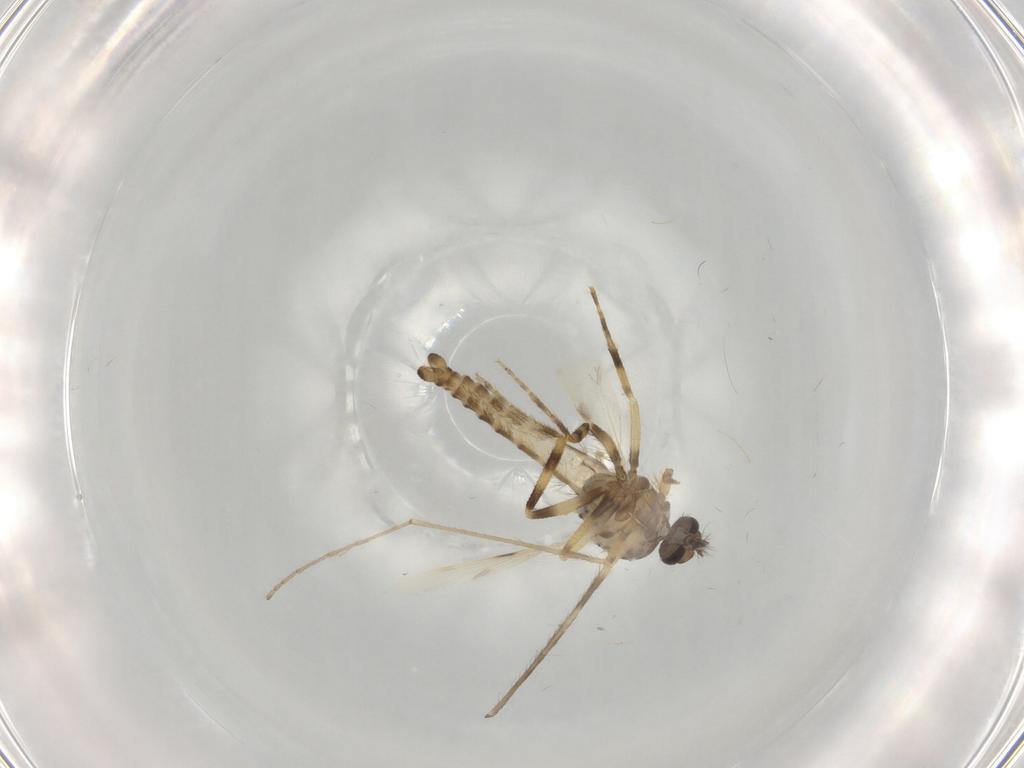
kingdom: Animalia
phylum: Arthropoda
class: Insecta
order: Diptera
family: Ceratopogonidae
